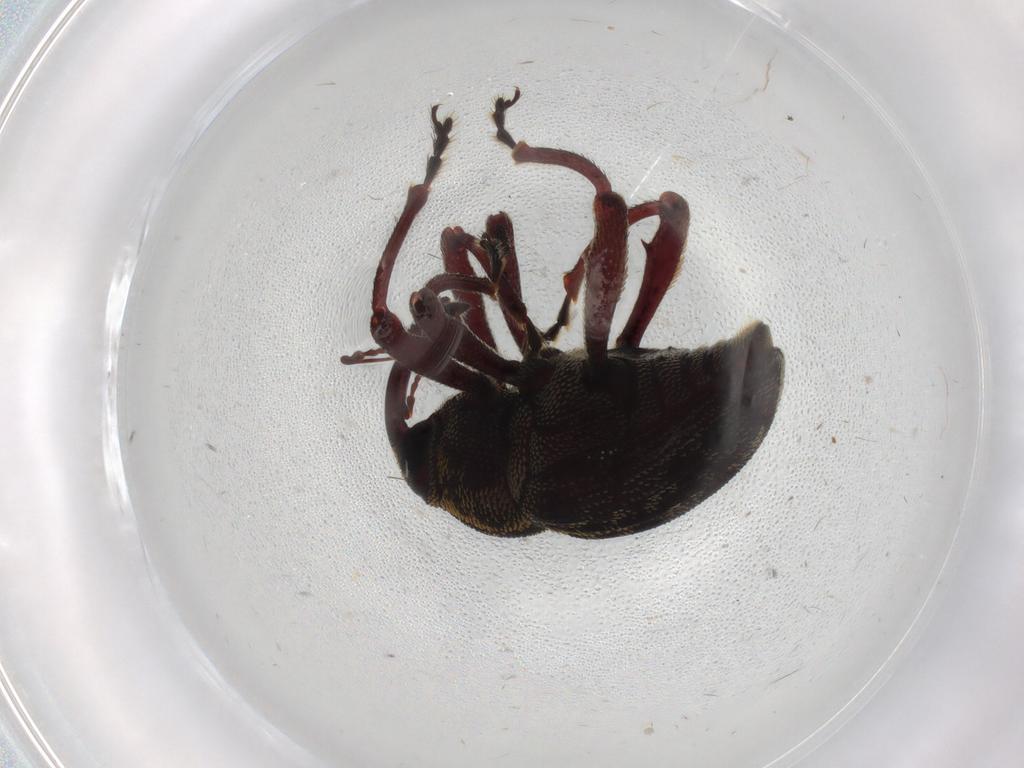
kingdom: Animalia
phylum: Arthropoda
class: Insecta
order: Coleoptera
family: Curculionidae
